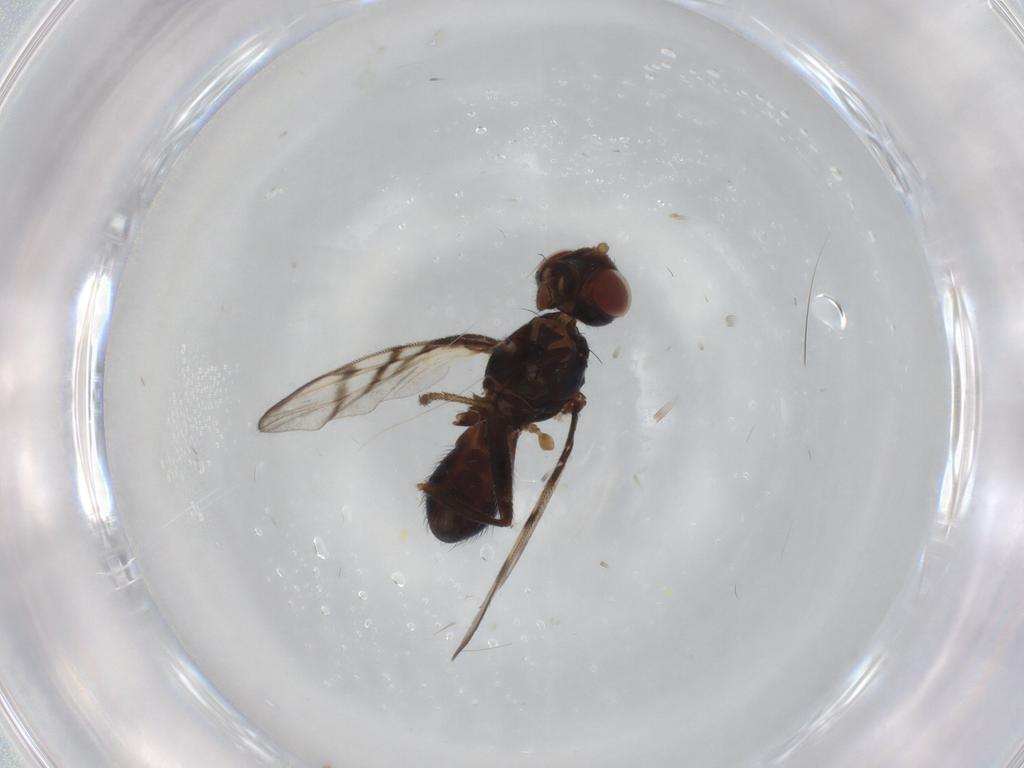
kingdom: Animalia
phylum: Arthropoda
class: Insecta
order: Diptera
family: Platystomatidae
